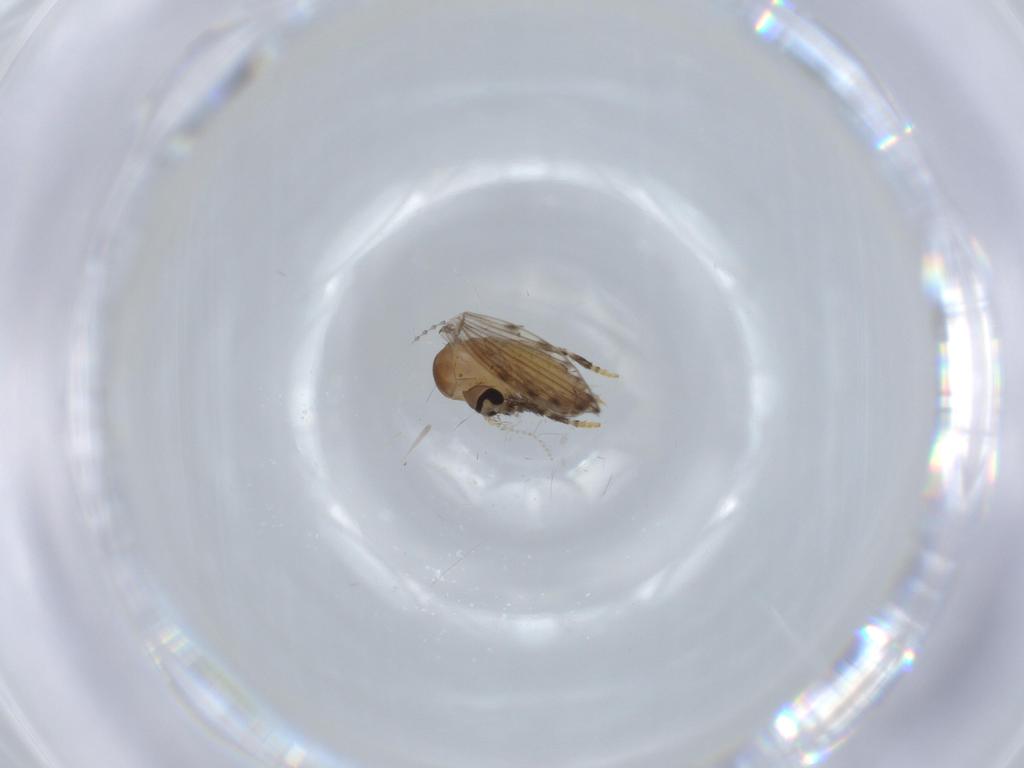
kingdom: Animalia
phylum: Arthropoda
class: Insecta
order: Diptera
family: Psychodidae
